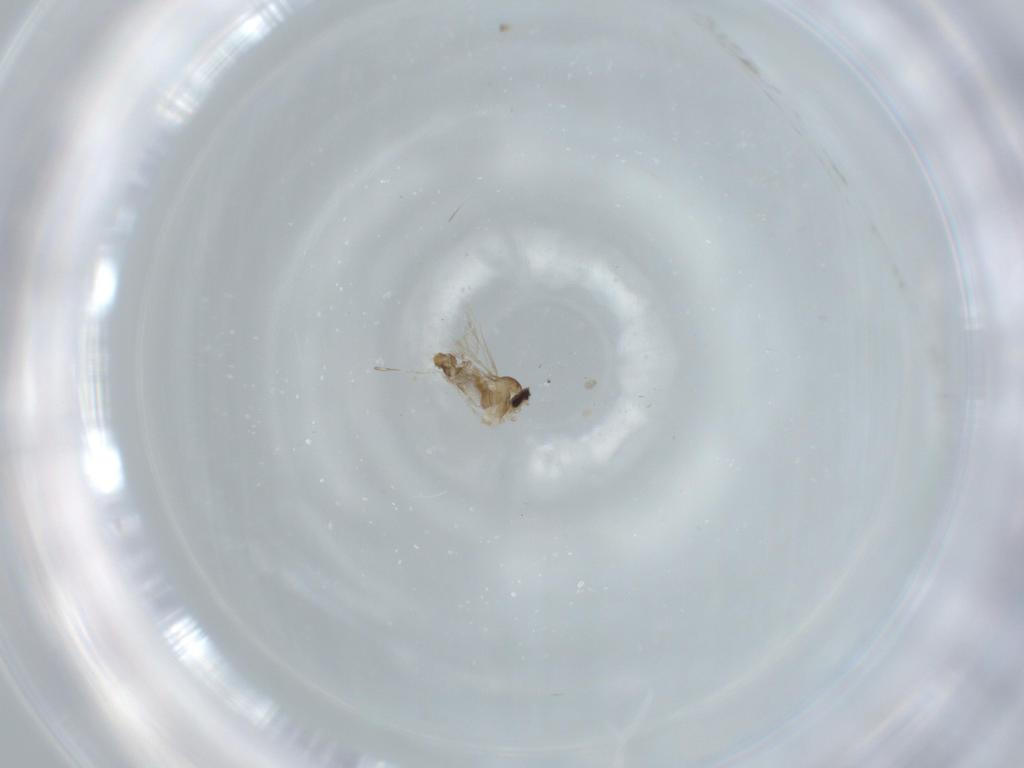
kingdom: Animalia
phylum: Arthropoda
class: Insecta
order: Diptera
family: Cecidomyiidae
